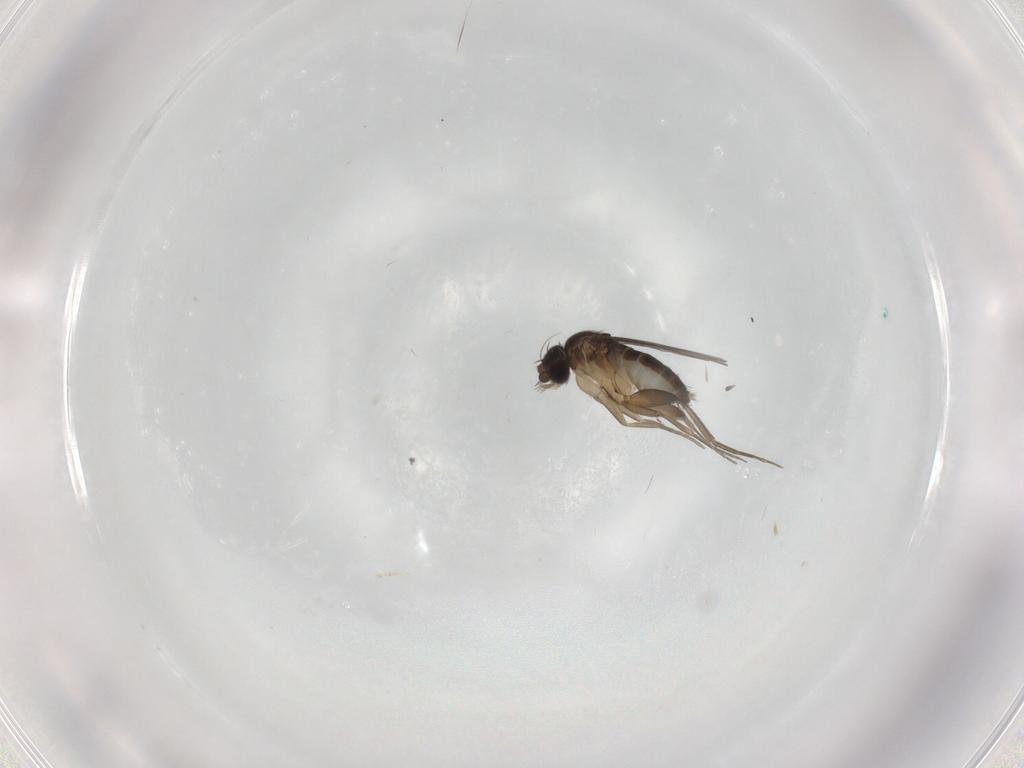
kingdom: Animalia
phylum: Arthropoda
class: Insecta
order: Diptera
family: Phoridae
